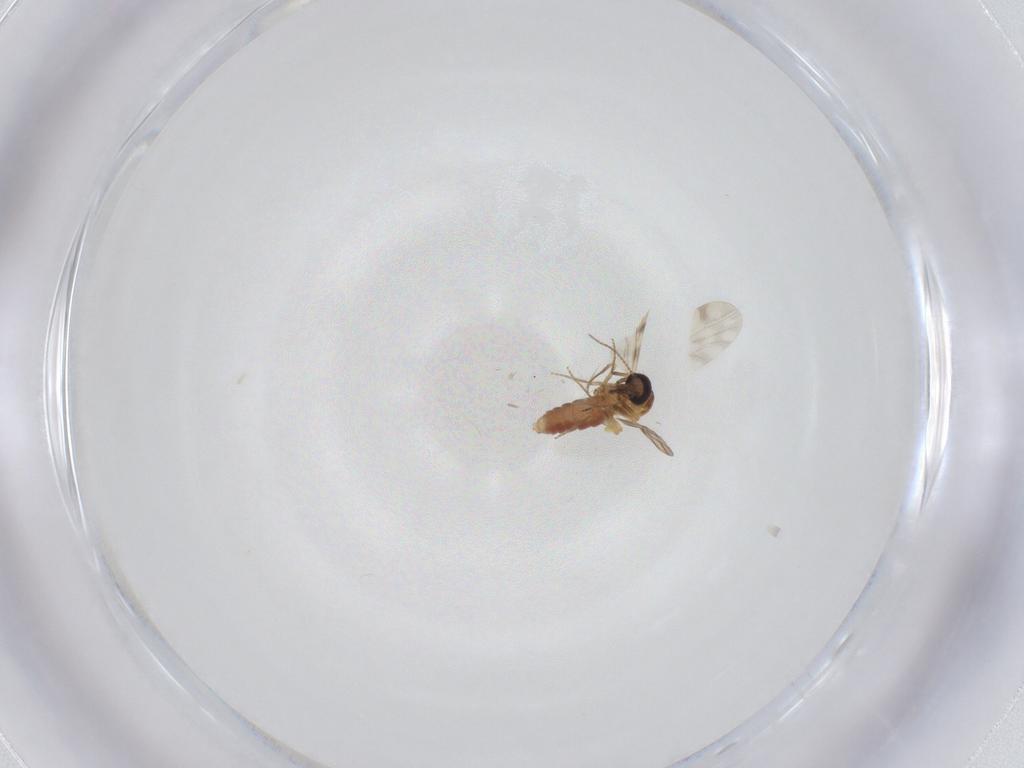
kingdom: Animalia
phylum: Arthropoda
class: Insecta
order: Diptera
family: Ceratopogonidae
